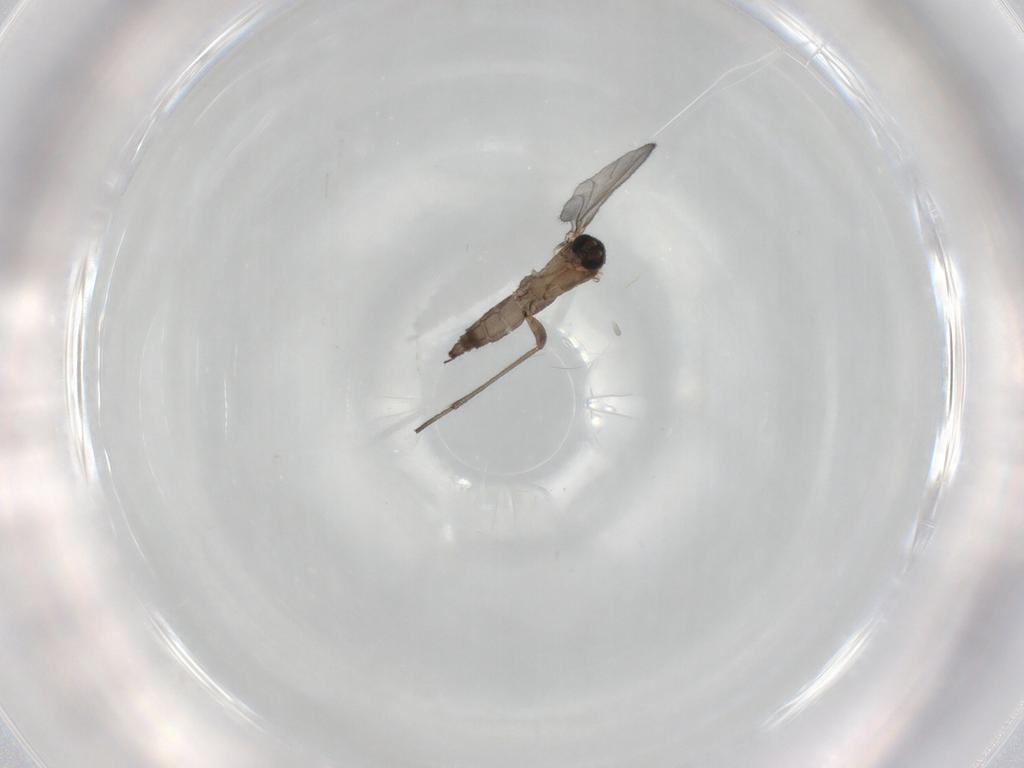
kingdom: Animalia
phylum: Arthropoda
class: Insecta
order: Diptera
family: Sciaridae
